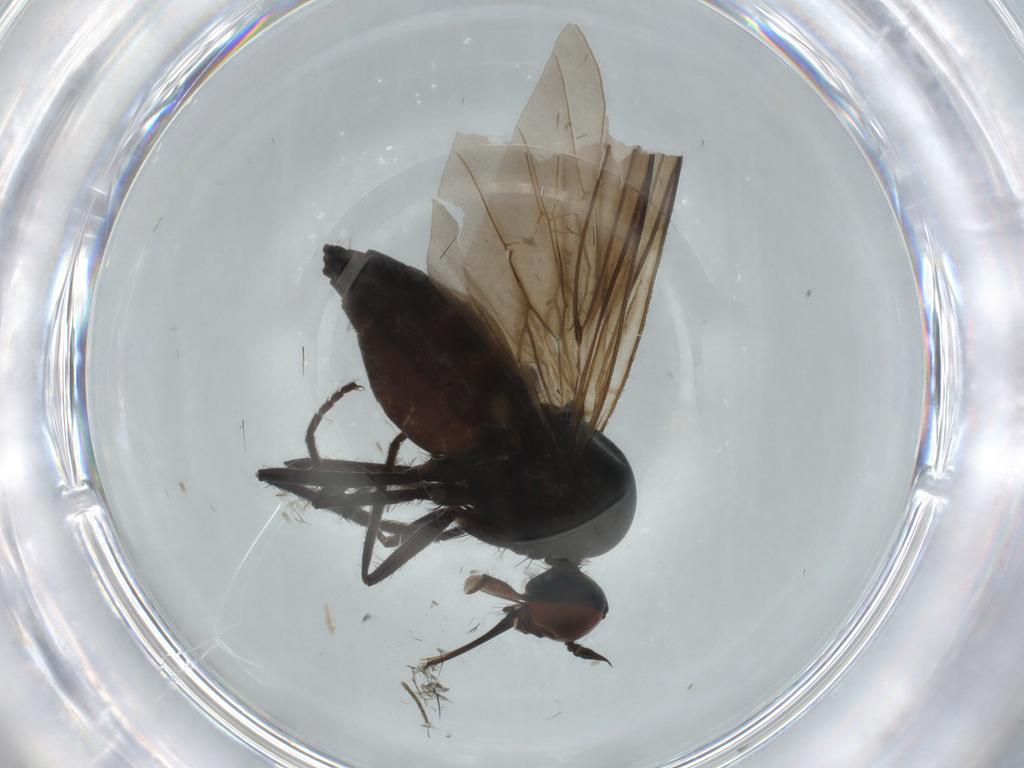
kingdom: Animalia
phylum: Arthropoda
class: Insecta
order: Diptera
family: Empididae
